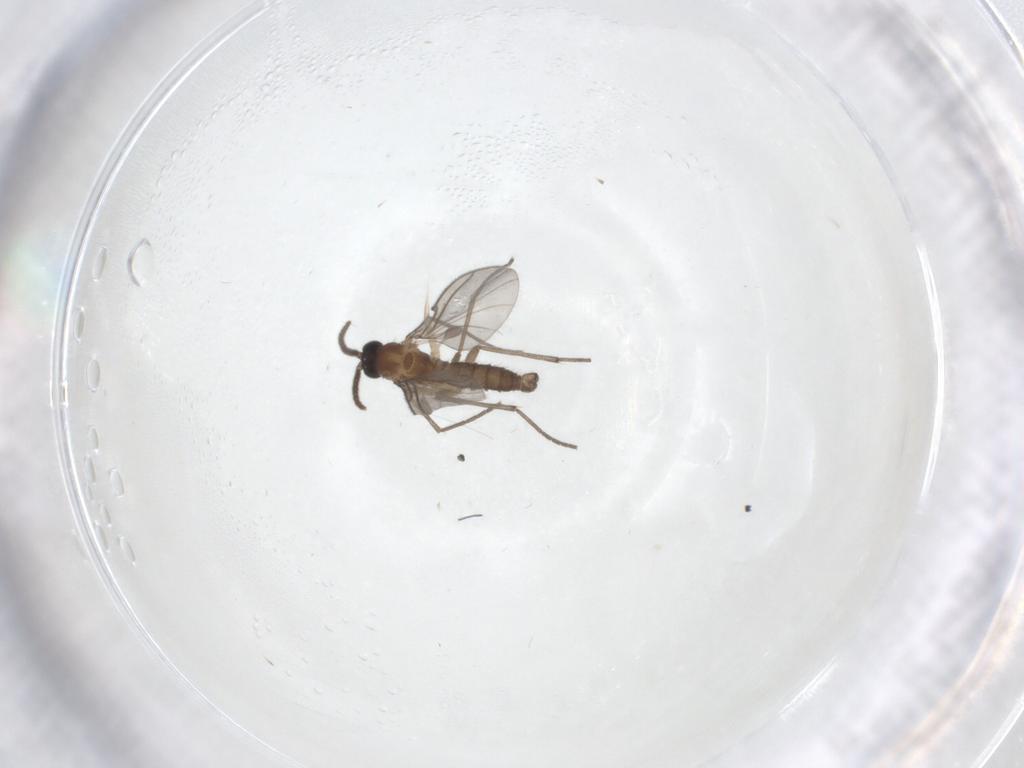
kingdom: Animalia
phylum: Arthropoda
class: Insecta
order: Diptera
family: Sciaridae
